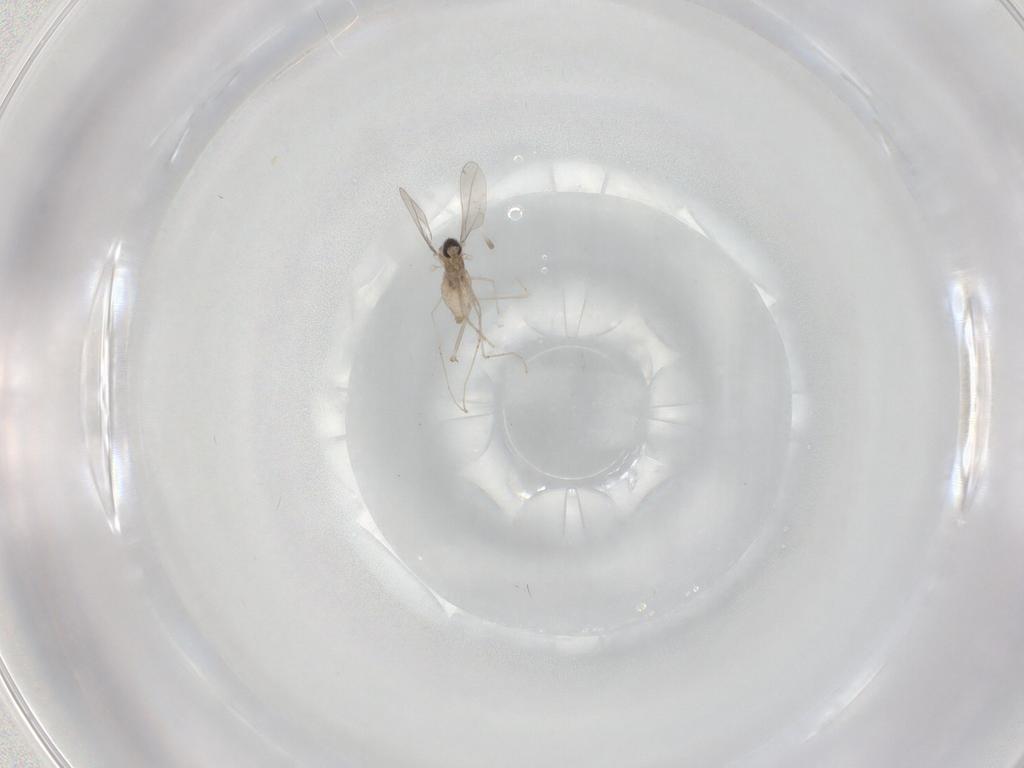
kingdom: Animalia
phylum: Arthropoda
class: Insecta
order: Diptera
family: Cecidomyiidae
